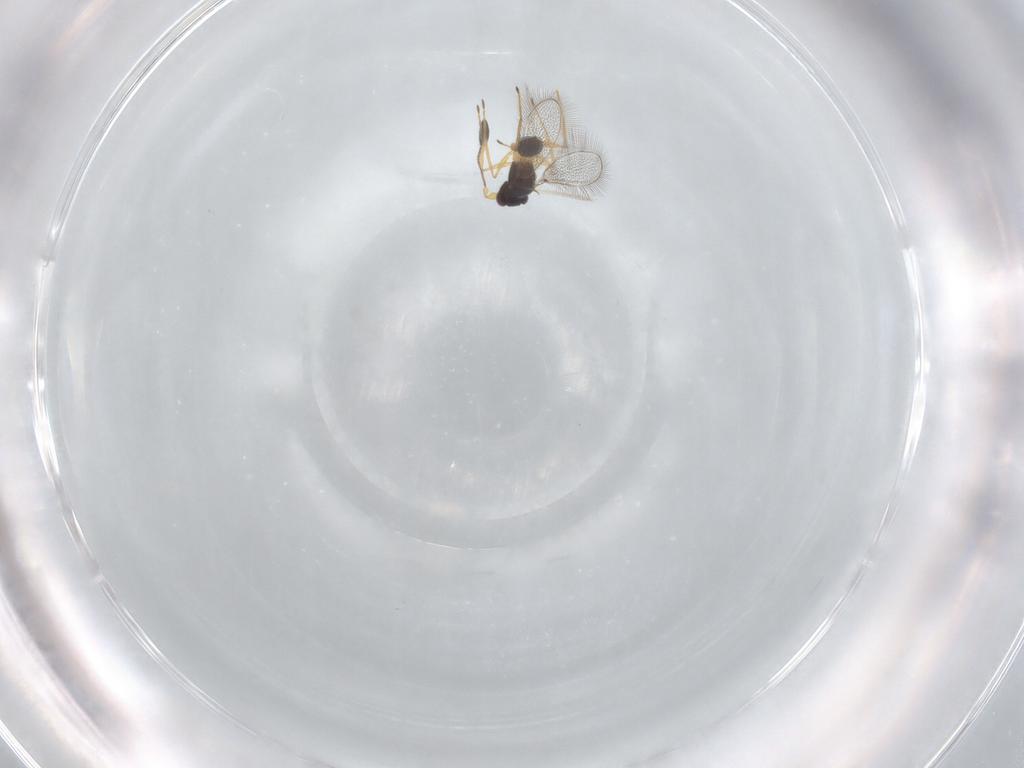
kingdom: Animalia
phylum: Arthropoda
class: Insecta
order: Hymenoptera
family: Mymaridae
